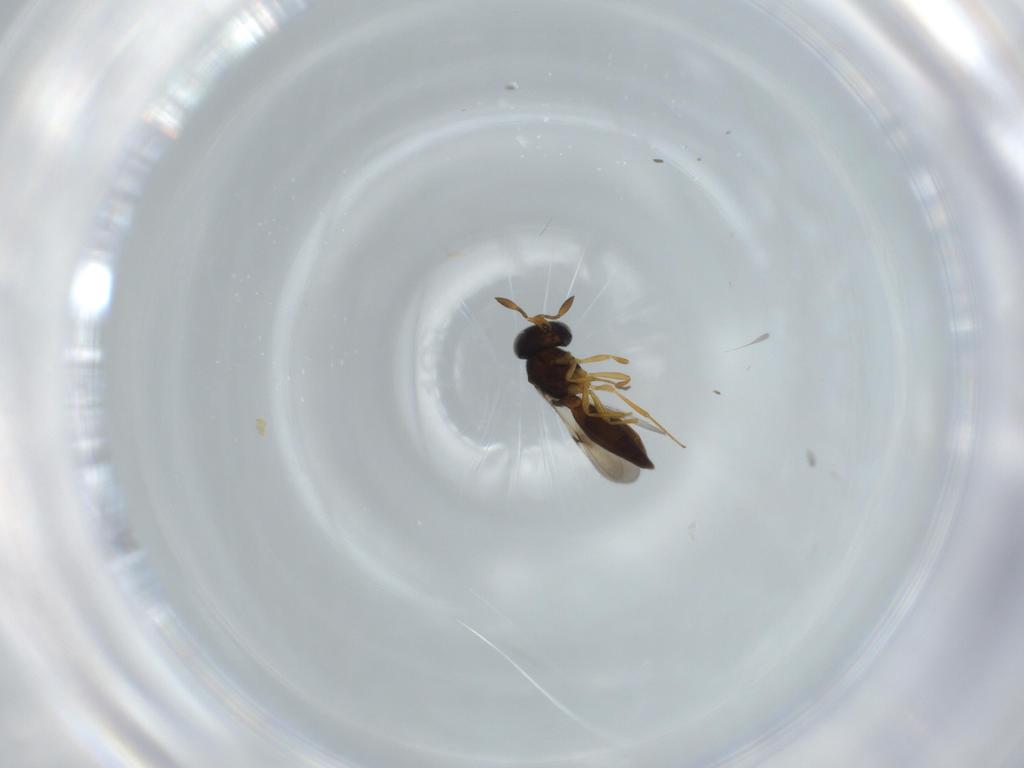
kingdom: Animalia
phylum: Arthropoda
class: Insecta
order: Hymenoptera
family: Scelionidae
